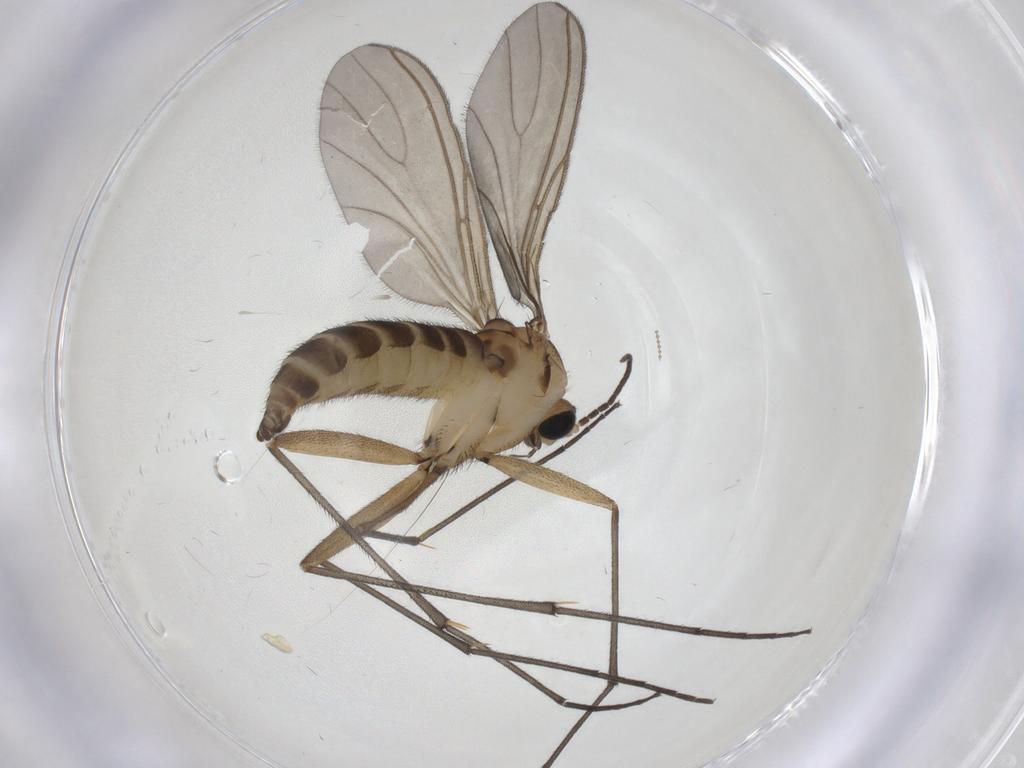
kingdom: Animalia
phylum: Arthropoda
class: Insecta
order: Diptera
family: Sciaridae
